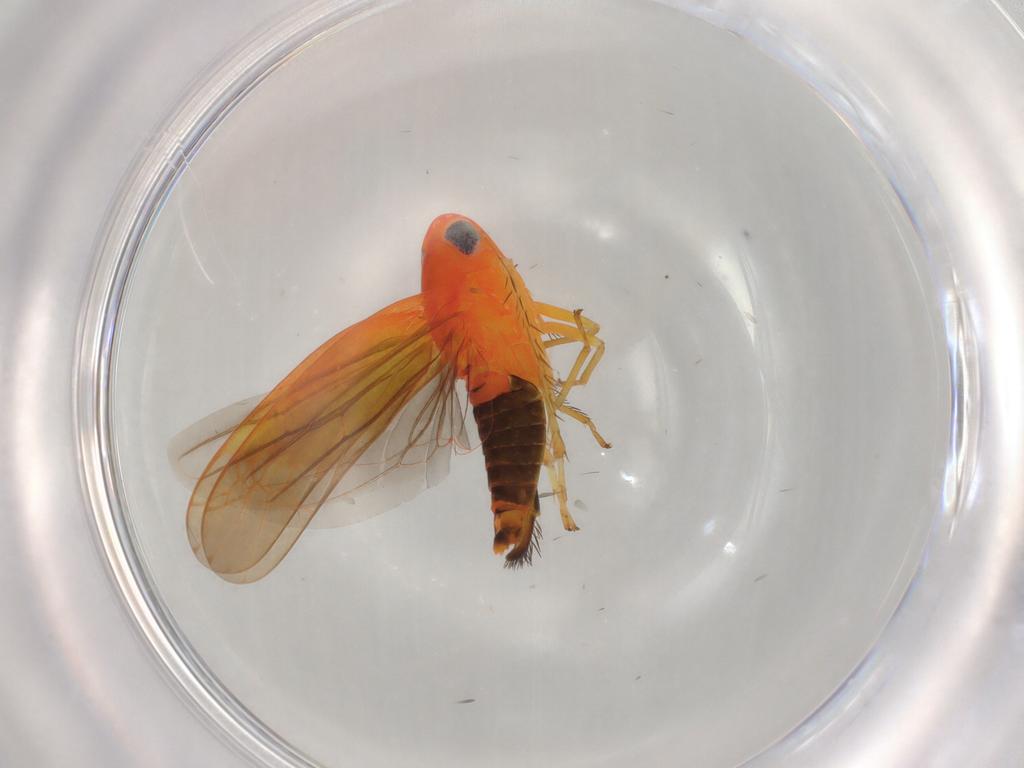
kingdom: Animalia
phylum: Arthropoda
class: Insecta
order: Hemiptera
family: Cicadellidae
